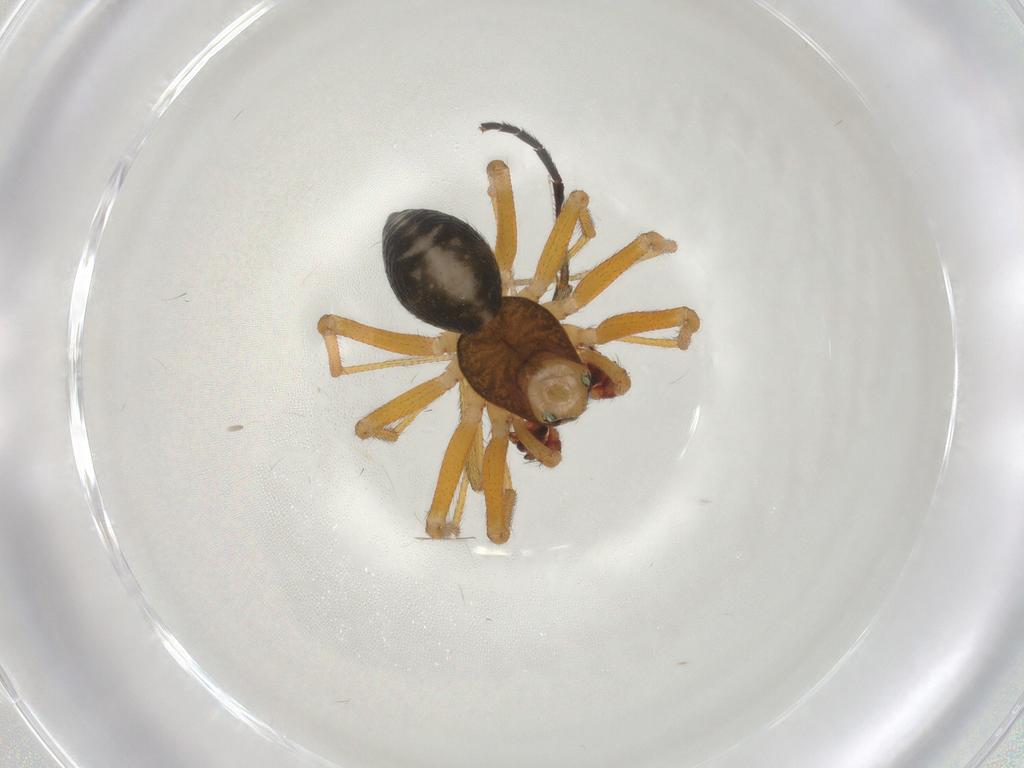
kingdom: Animalia
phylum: Arthropoda
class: Arachnida
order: Araneae
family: Linyphiidae
